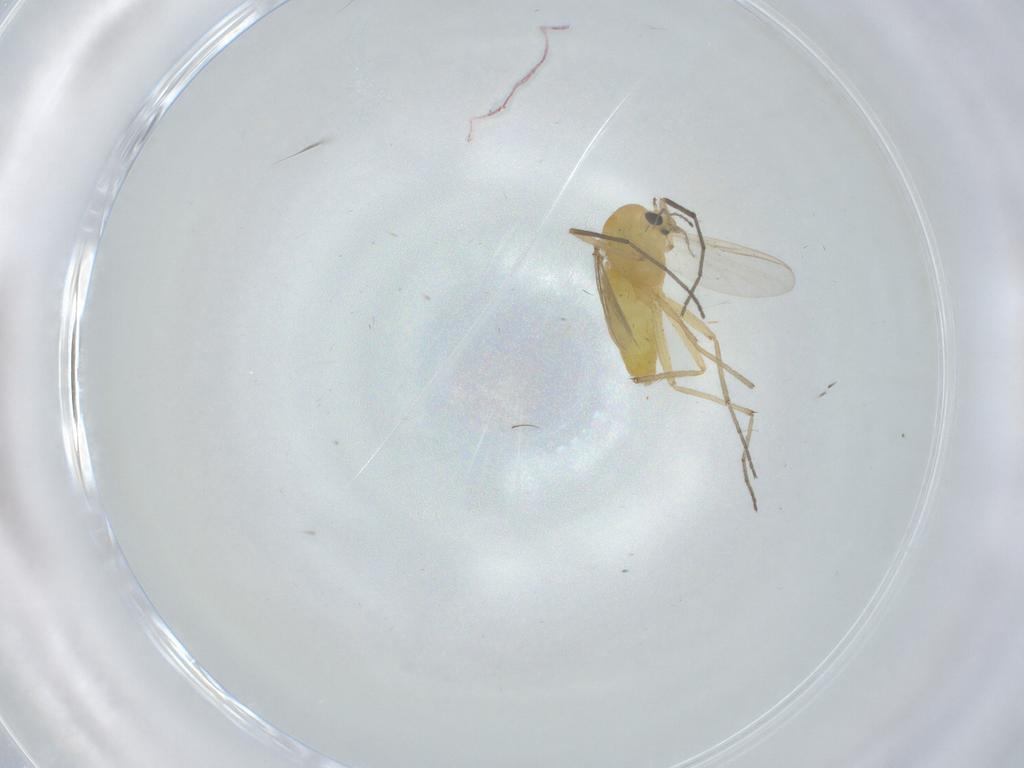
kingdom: Animalia
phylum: Arthropoda
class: Insecta
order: Diptera
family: Chironomidae
